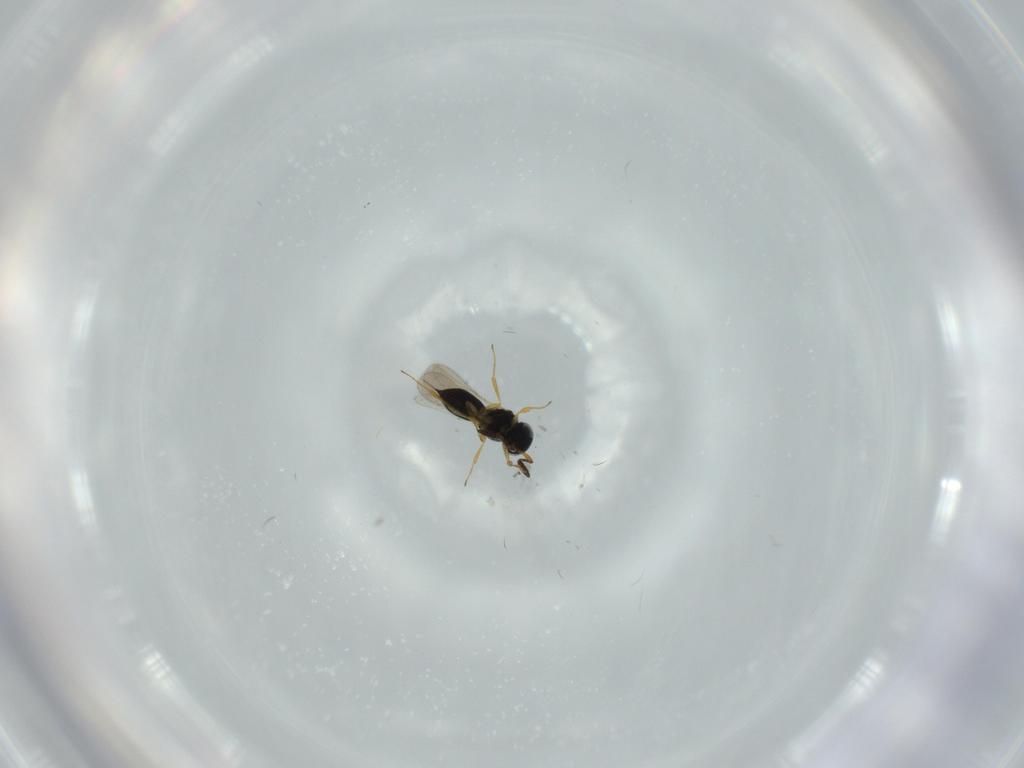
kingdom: Animalia
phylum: Arthropoda
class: Insecta
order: Hymenoptera
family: Scelionidae
